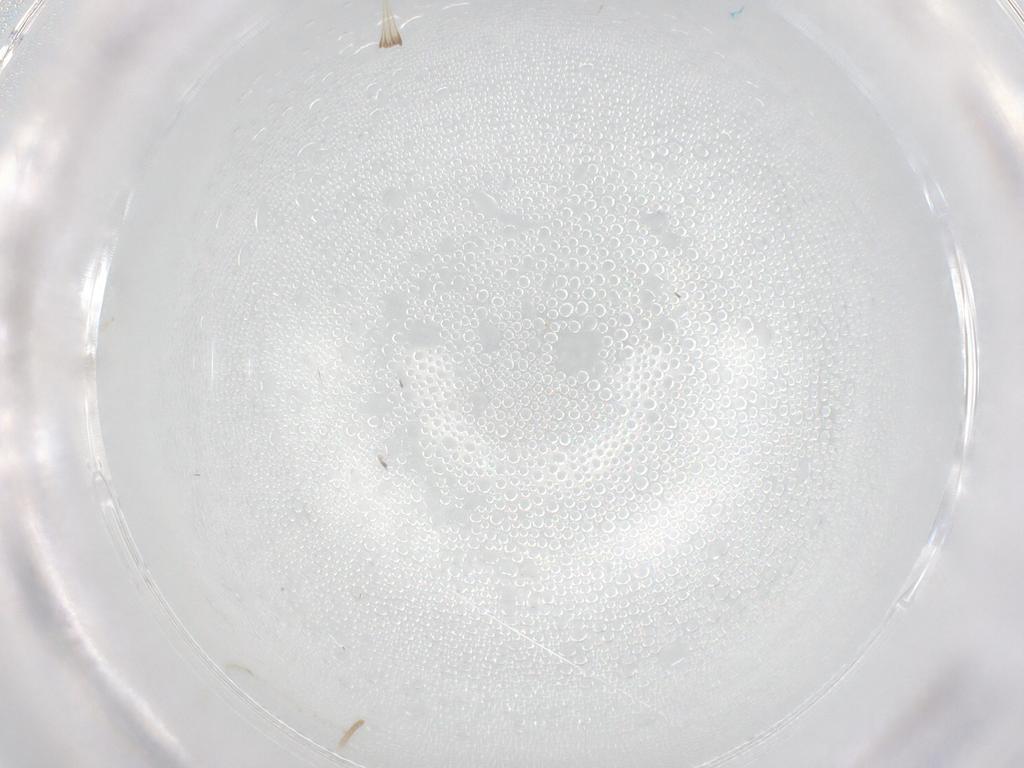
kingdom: Animalia
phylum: Arthropoda
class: Insecta
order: Diptera
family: Cecidomyiidae
